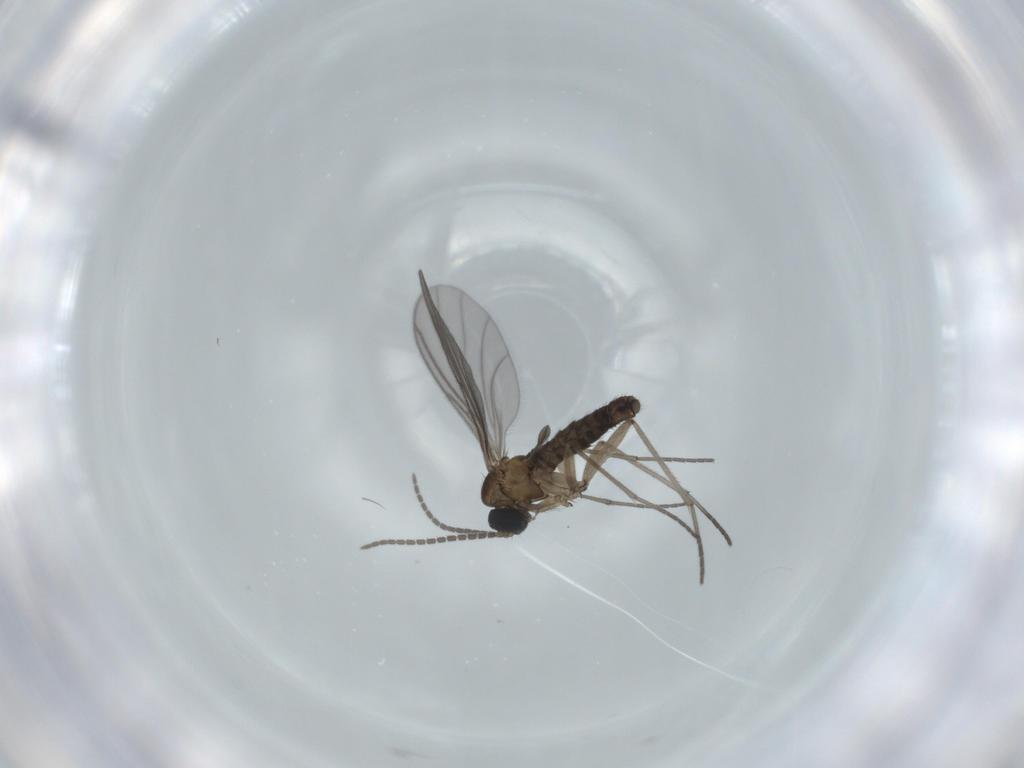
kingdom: Animalia
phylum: Arthropoda
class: Insecta
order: Diptera
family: Sciaridae
